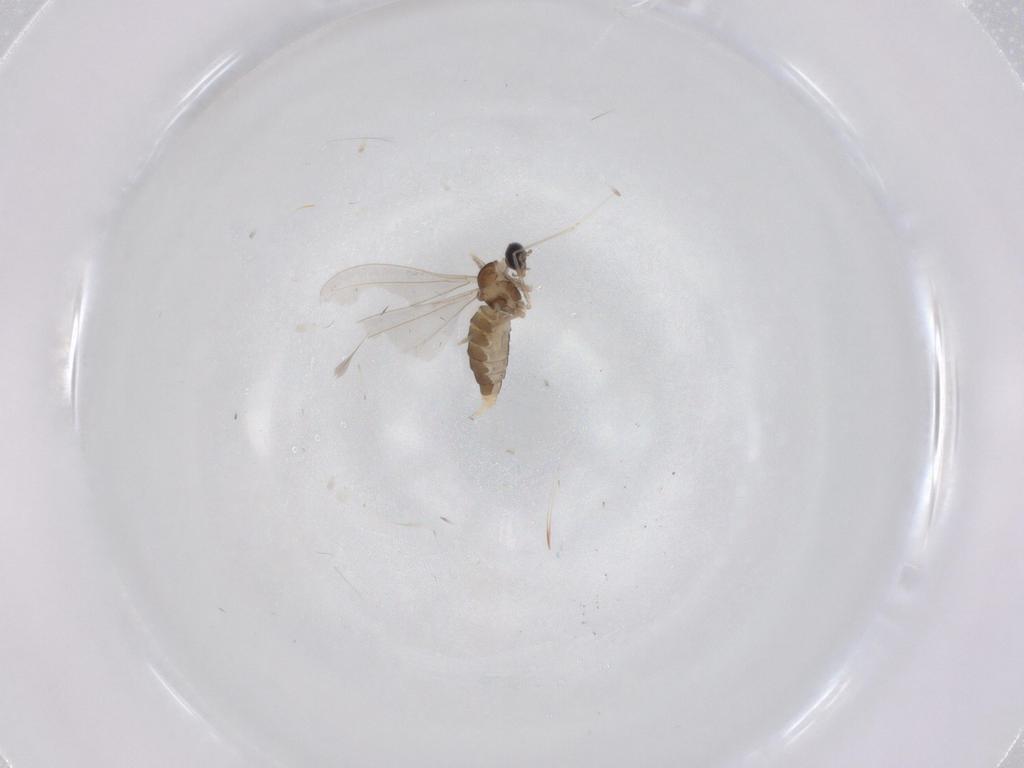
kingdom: Animalia
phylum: Arthropoda
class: Insecta
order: Diptera
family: Cecidomyiidae
